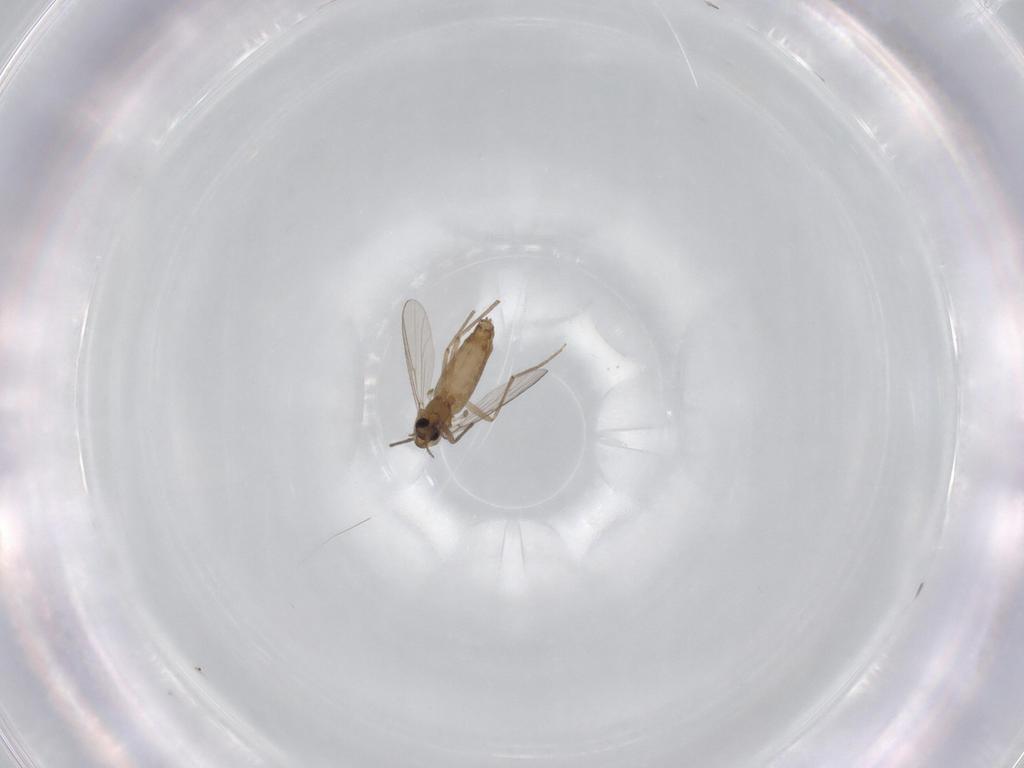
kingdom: Animalia
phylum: Arthropoda
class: Insecta
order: Diptera
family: Chironomidae
